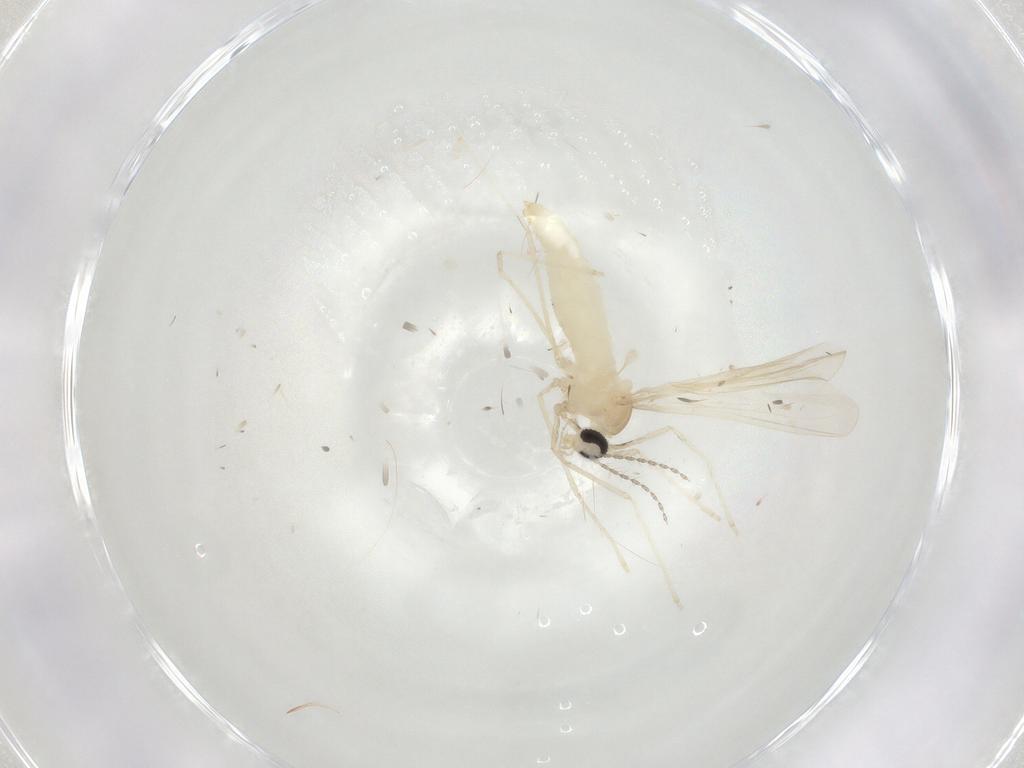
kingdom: Animalia
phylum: Arthropoda
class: Insecta
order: Diptera
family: Cecidomyiidae
